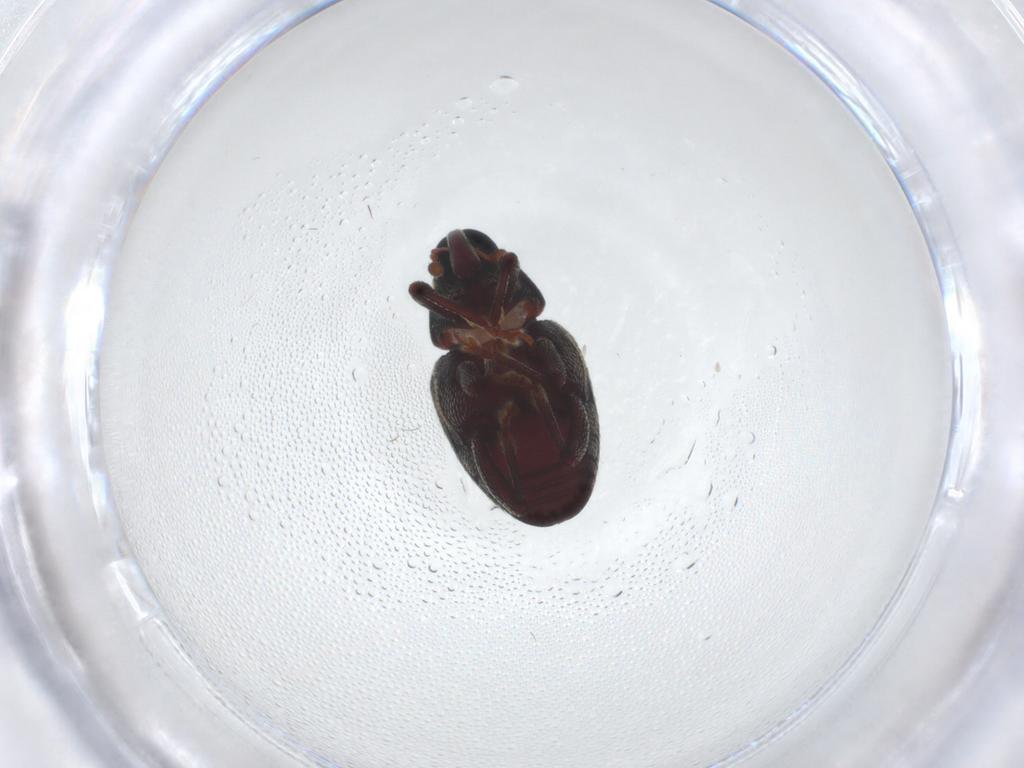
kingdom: Animalia
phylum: Arthropoda
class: Insecta
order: Coleoptera
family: Curculionidae
